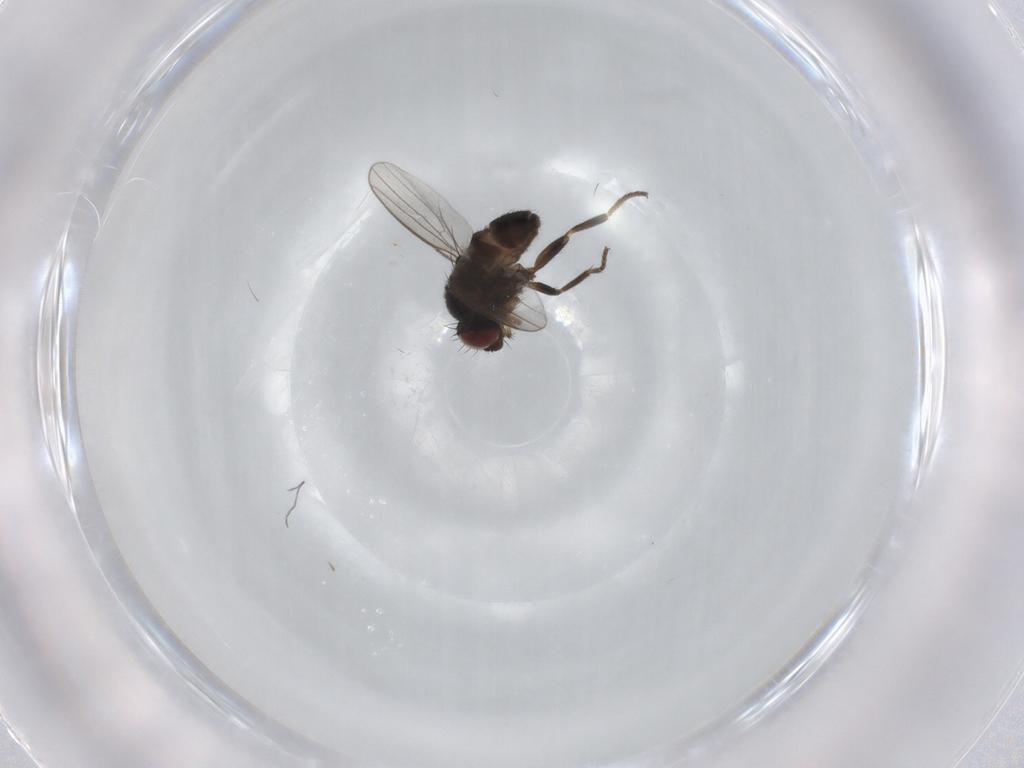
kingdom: Animalia
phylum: Arthropoda
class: Insecta
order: Diptera
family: Milichiidae
